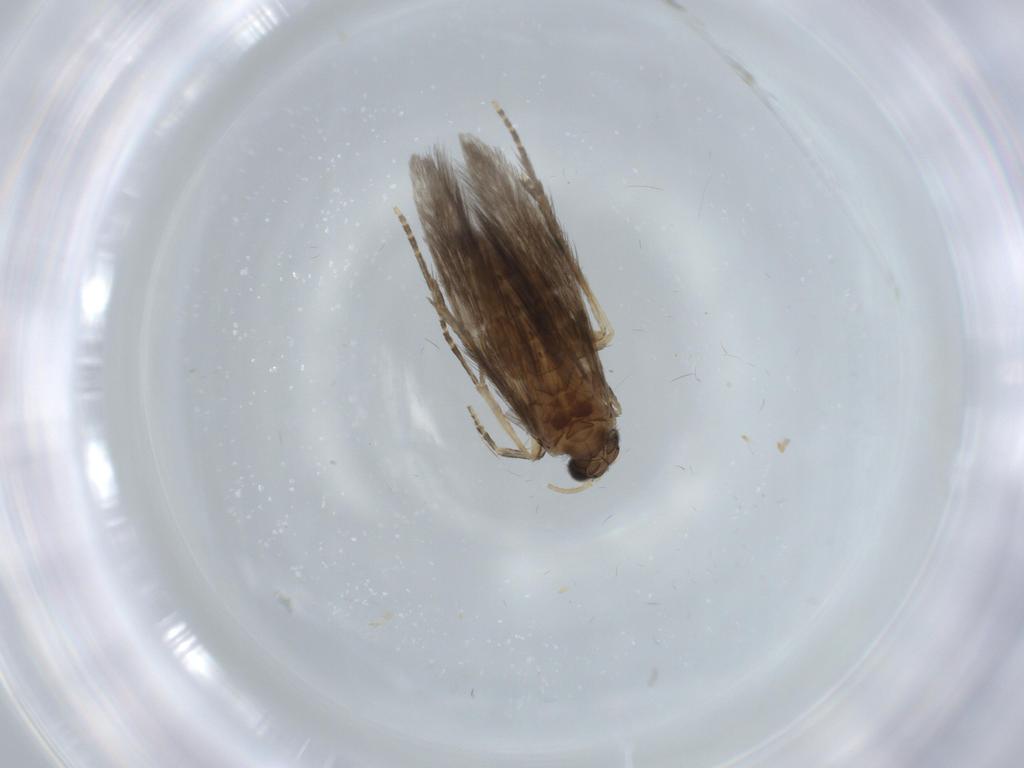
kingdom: Animalia
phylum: Arthropoda
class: Insecta
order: Trichoptera
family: Hydroptilidae
